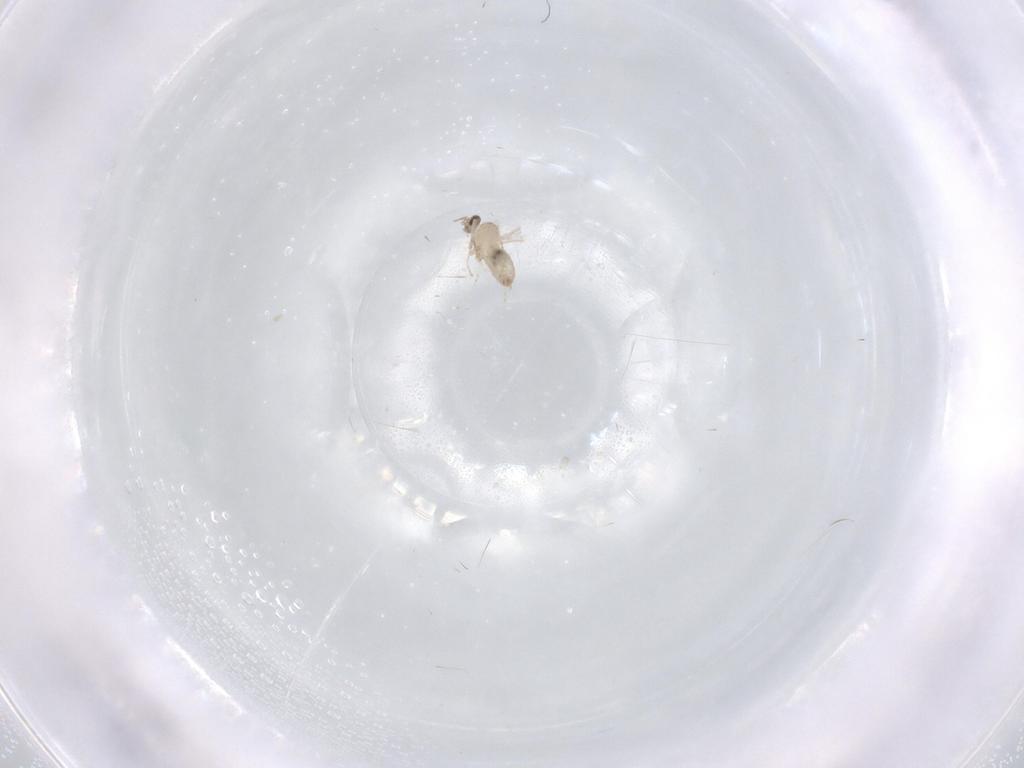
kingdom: Animalia
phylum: Arthropoda
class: Insecta
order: Diptera
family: Cecidomyiidae
